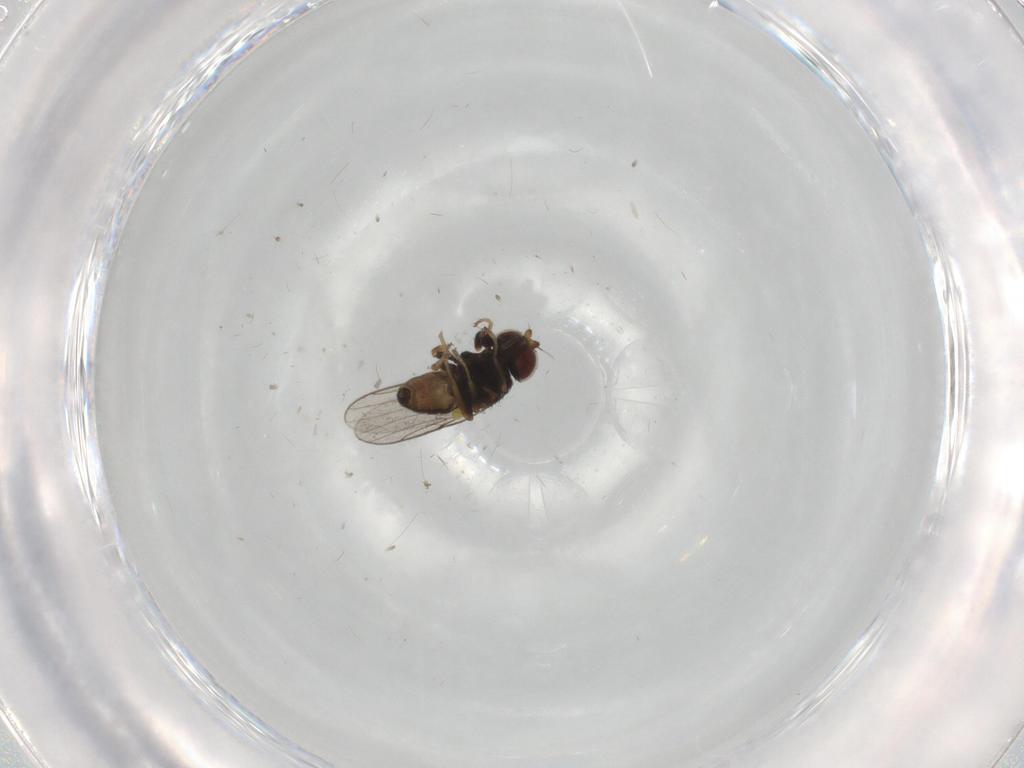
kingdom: Animalia
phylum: Arthropoda
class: Insecta
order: Diptera
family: Chloropidae
